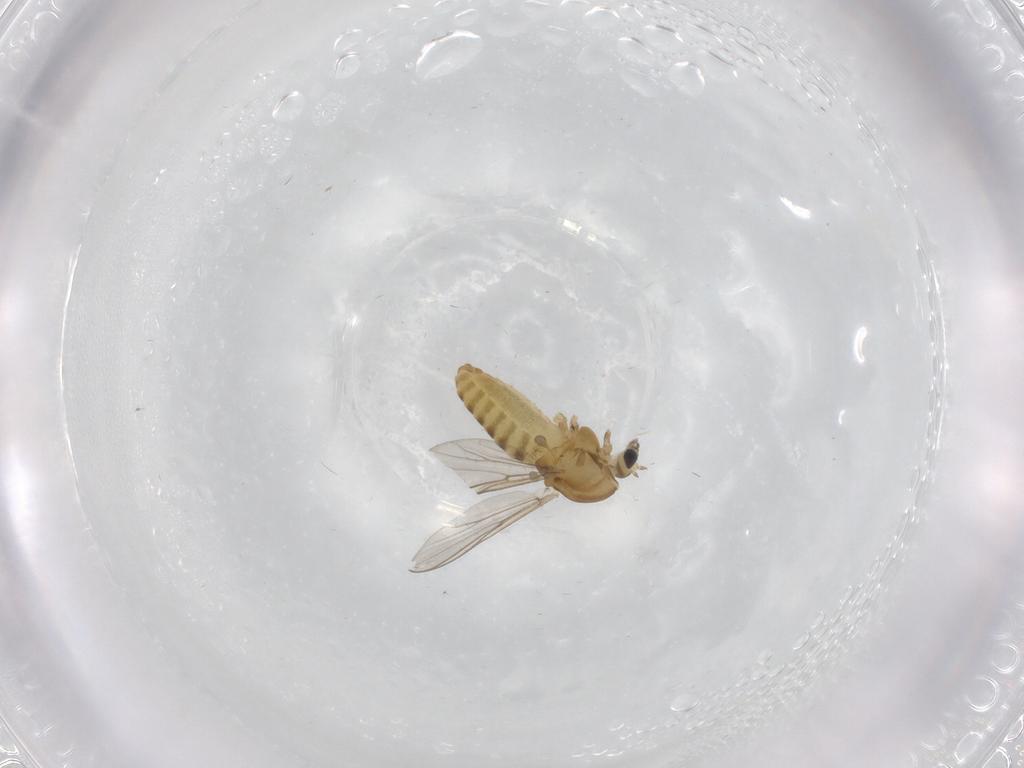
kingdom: Animalia
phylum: Arthropoda
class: Insecta
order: Diptera
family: Chironomidae
